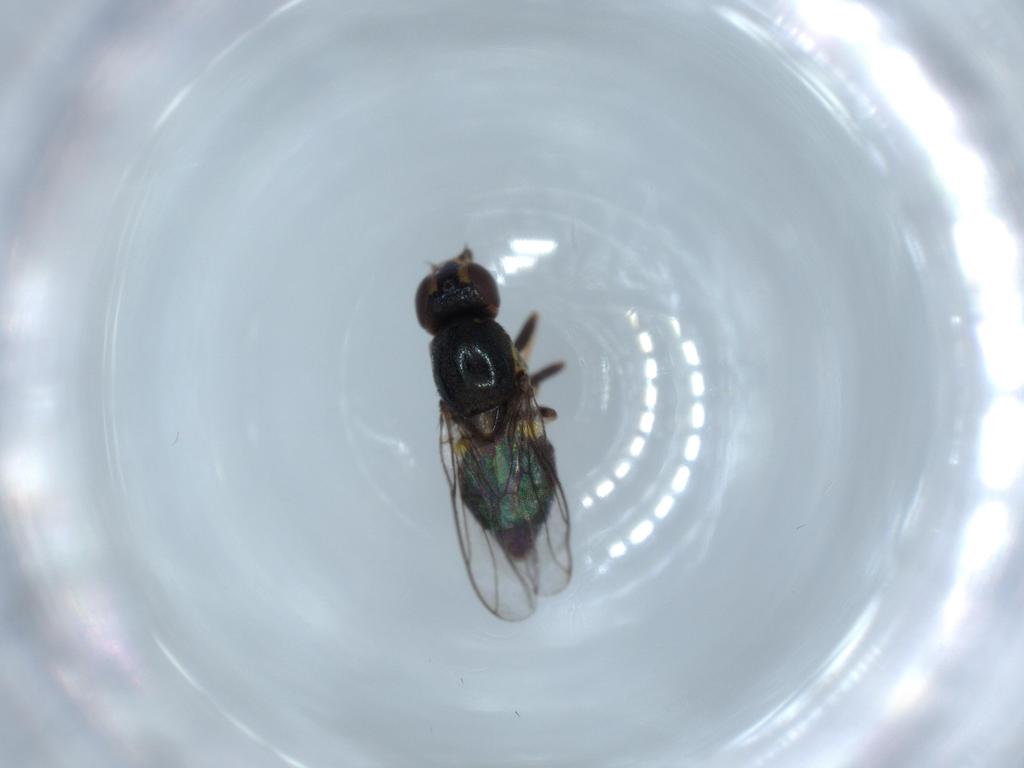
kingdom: Animalia
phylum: Arthropoda
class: Insecta
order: Diptera
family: Chloropidae
